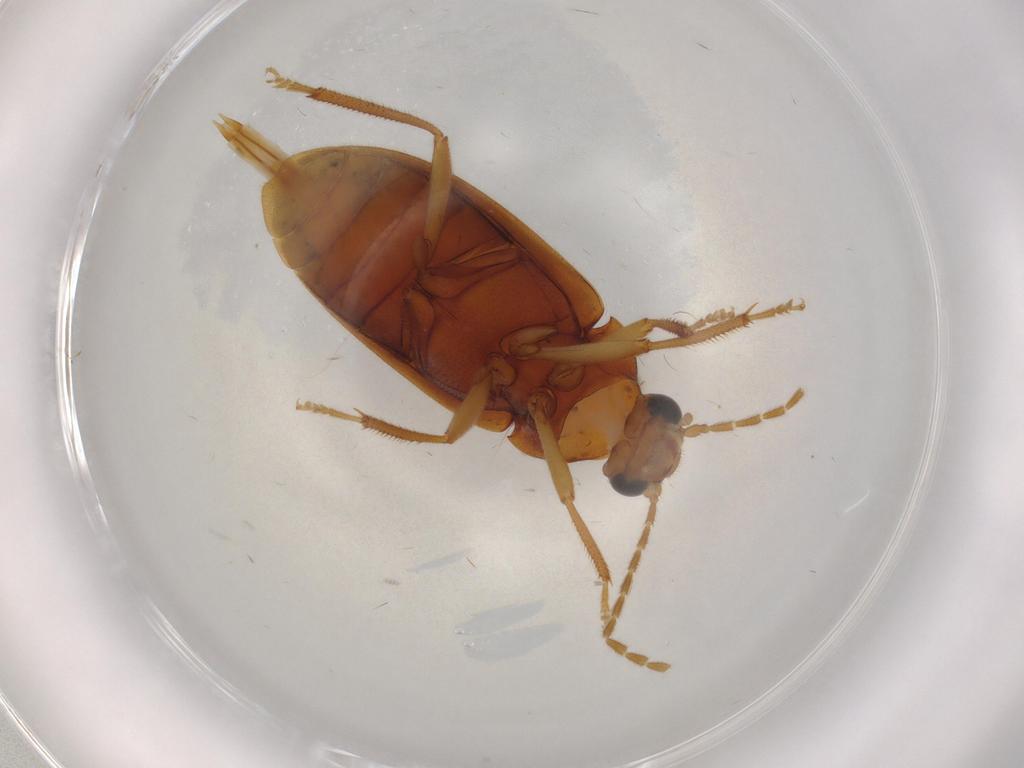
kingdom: Animalia
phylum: Arthropoda
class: Insecta
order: Coleoptera
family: Ptilodactylidae
